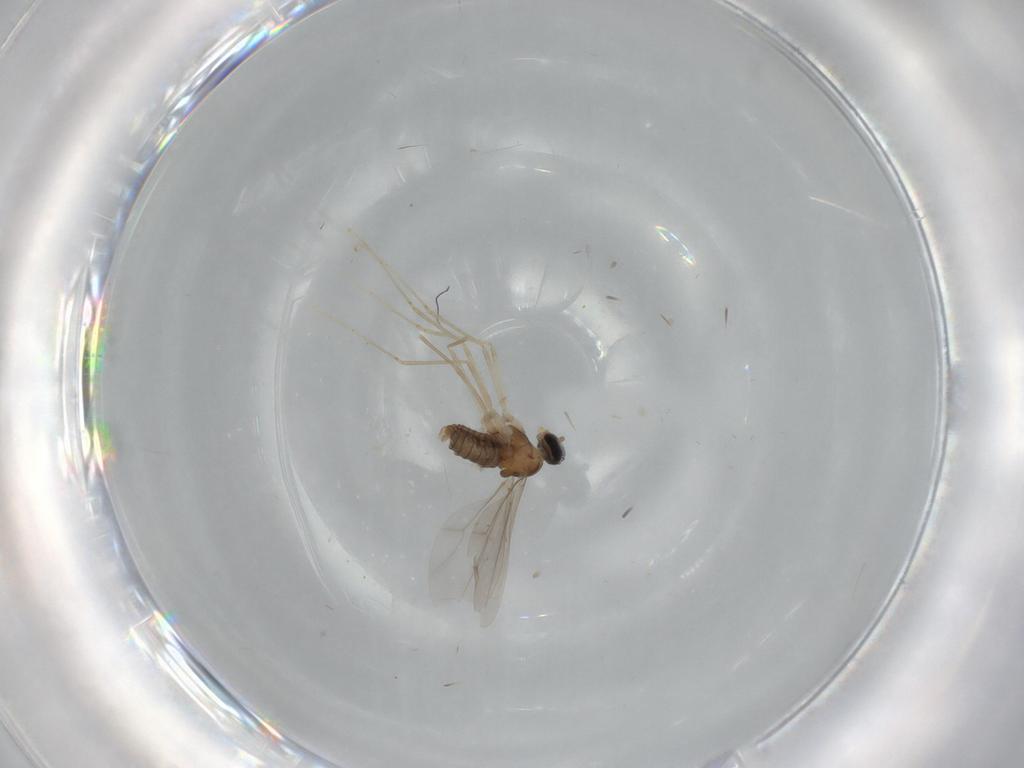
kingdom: Animalia
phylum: Arthropoda
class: Insecta
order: Diptera
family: Cecidomyiidae
